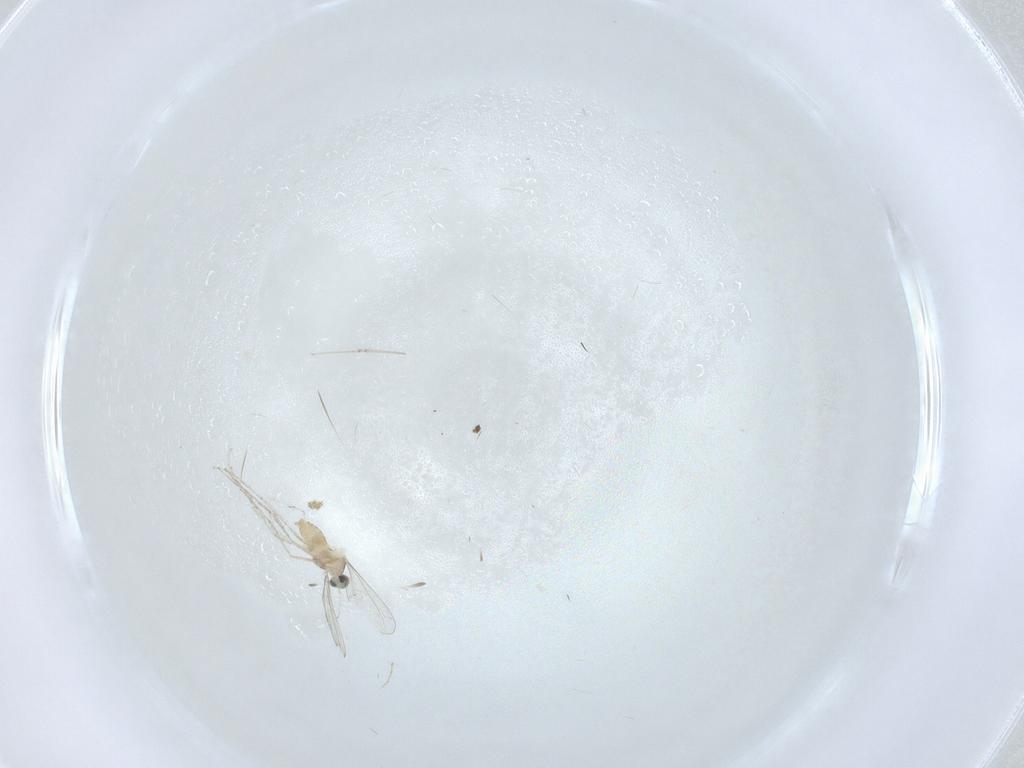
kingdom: Animalia
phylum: Arthropoda
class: Insecta
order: Diptera
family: Cecidomyiidae
